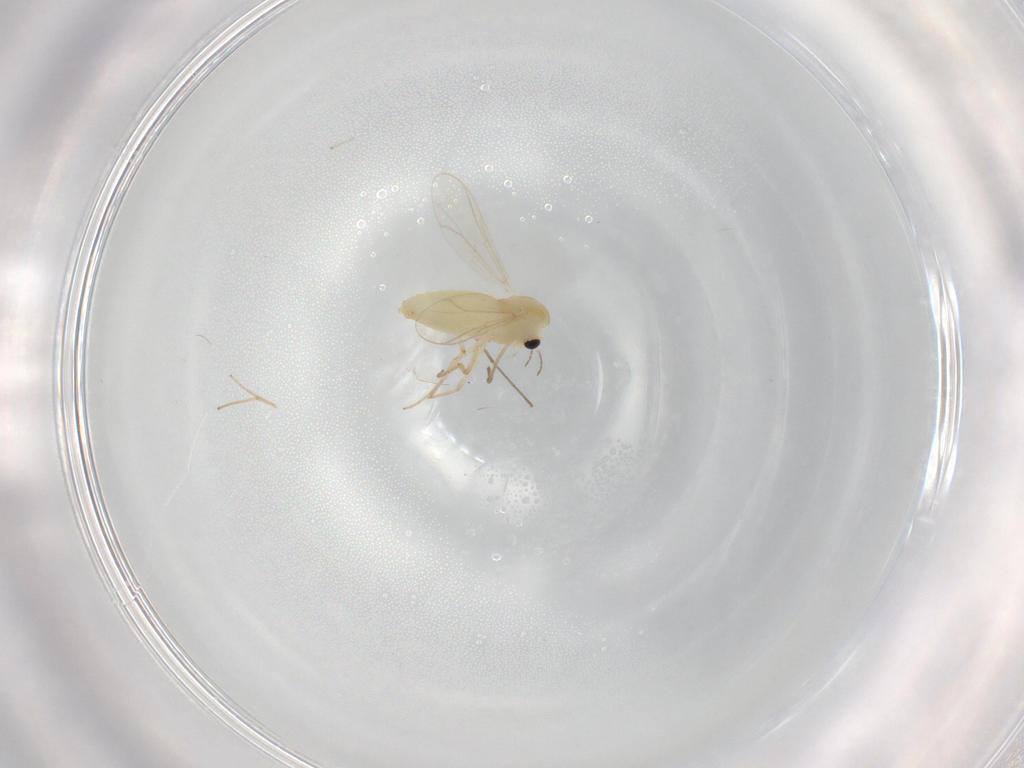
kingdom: Animalia
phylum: Arthropoda
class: Insecta
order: Diptera
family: Chironomidae
